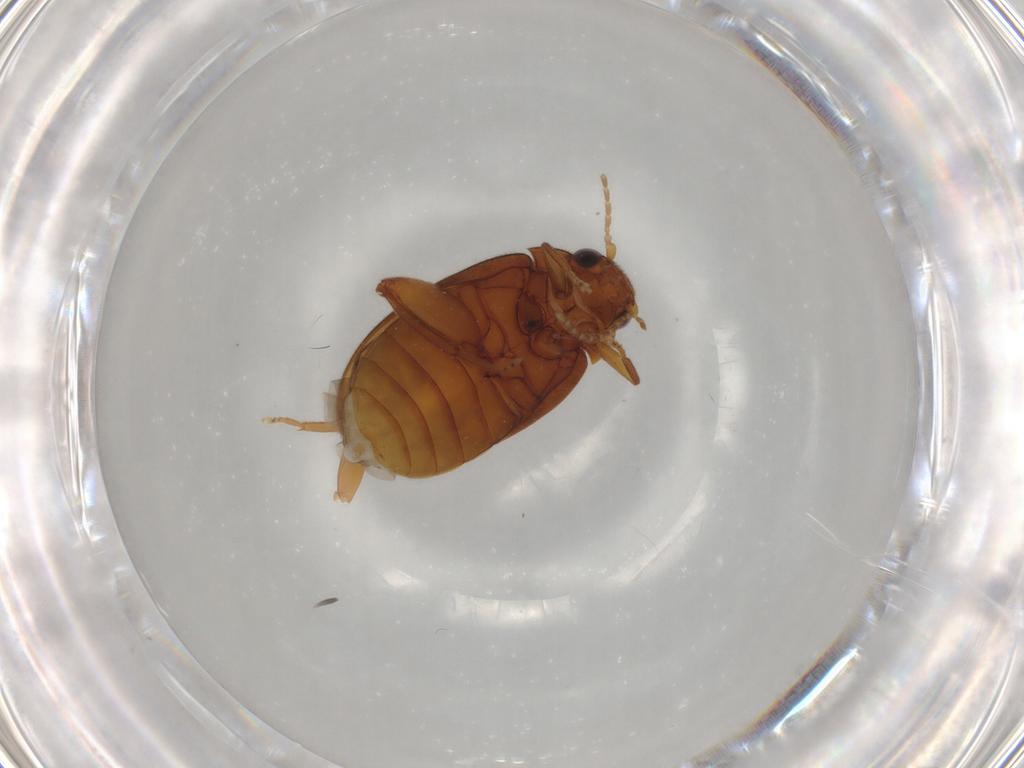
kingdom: Animalia
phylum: Arthropoda
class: Insecta
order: Coleoptera
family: Scirtidae
